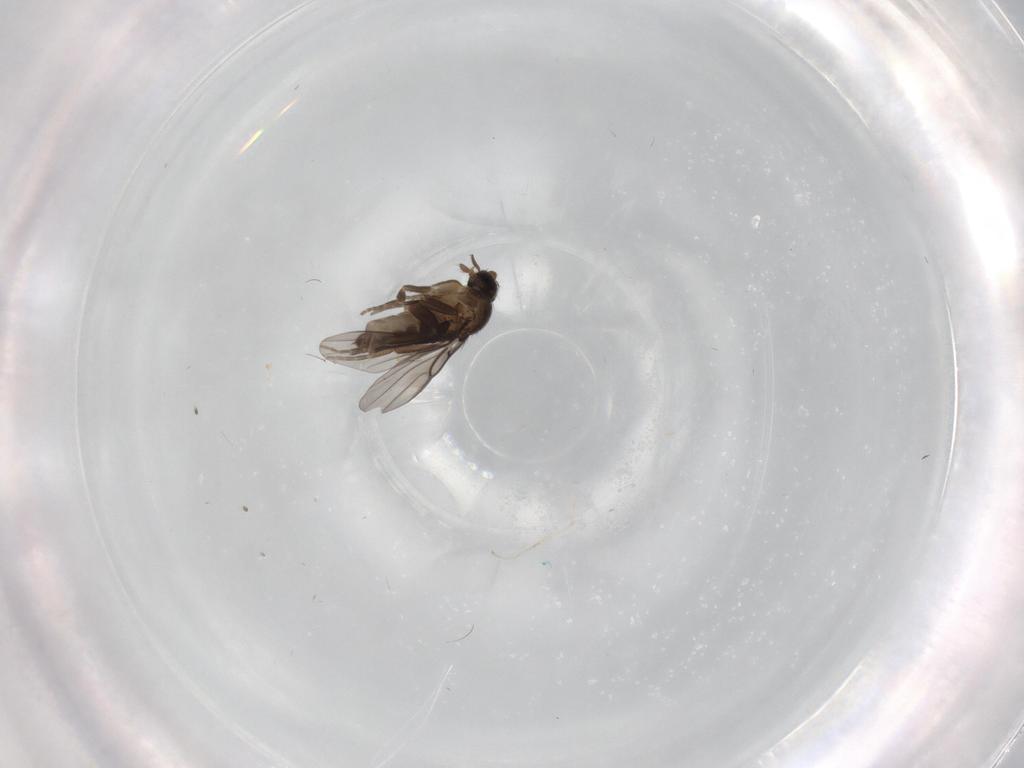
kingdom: Animalia
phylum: Arthropoda
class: Insecta
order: Diptera
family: Phoridae
